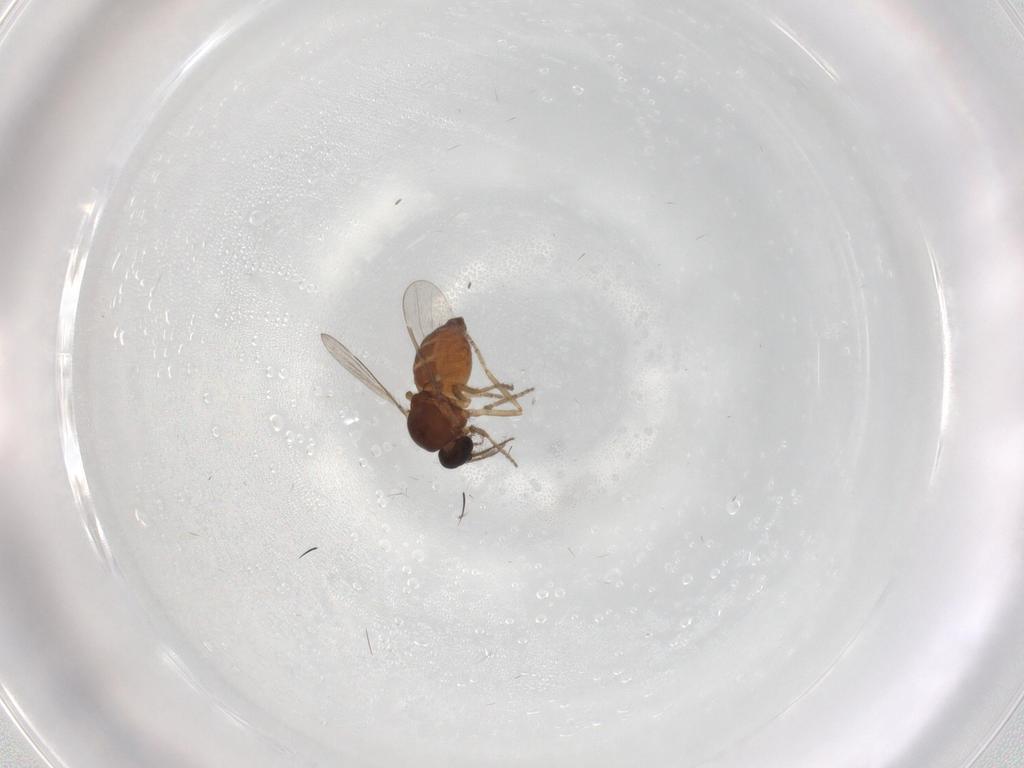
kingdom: Animalia
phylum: Arthropoda
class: Insecta
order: Diptera
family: Ceratopogonidae
